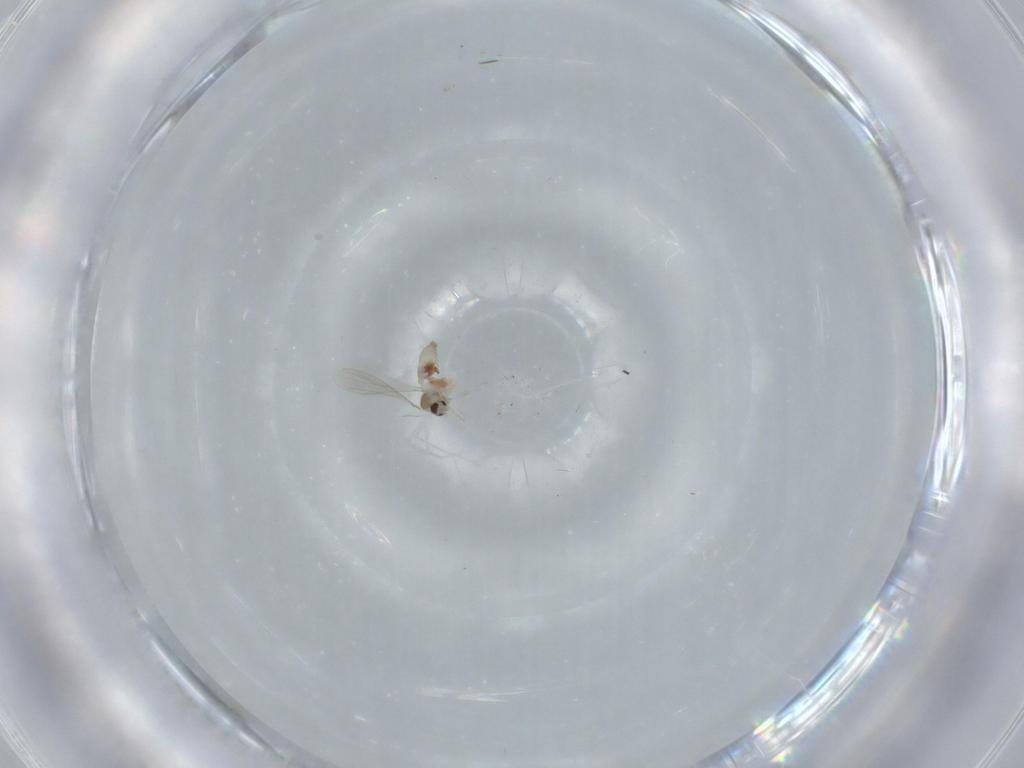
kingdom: Animalia
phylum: Arthropoda
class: Insecta
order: Diptera
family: Cecidomyiidae
